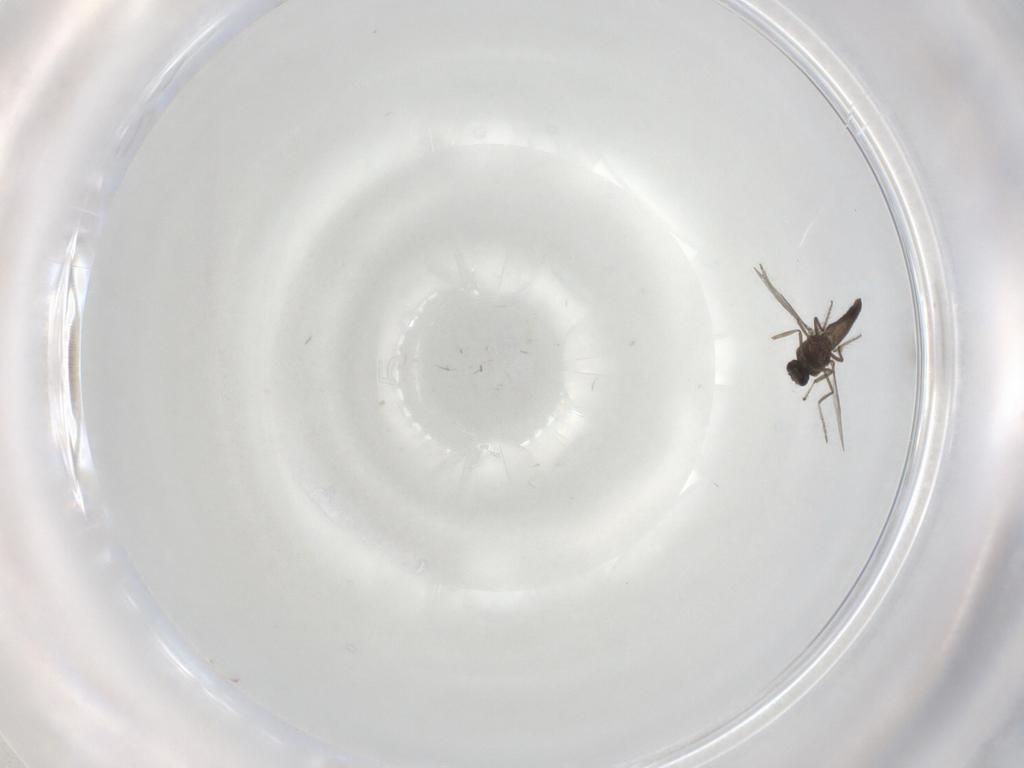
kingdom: Animalia
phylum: Arthropoda
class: Insecta
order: Diptera
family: Ceratopogonidae
